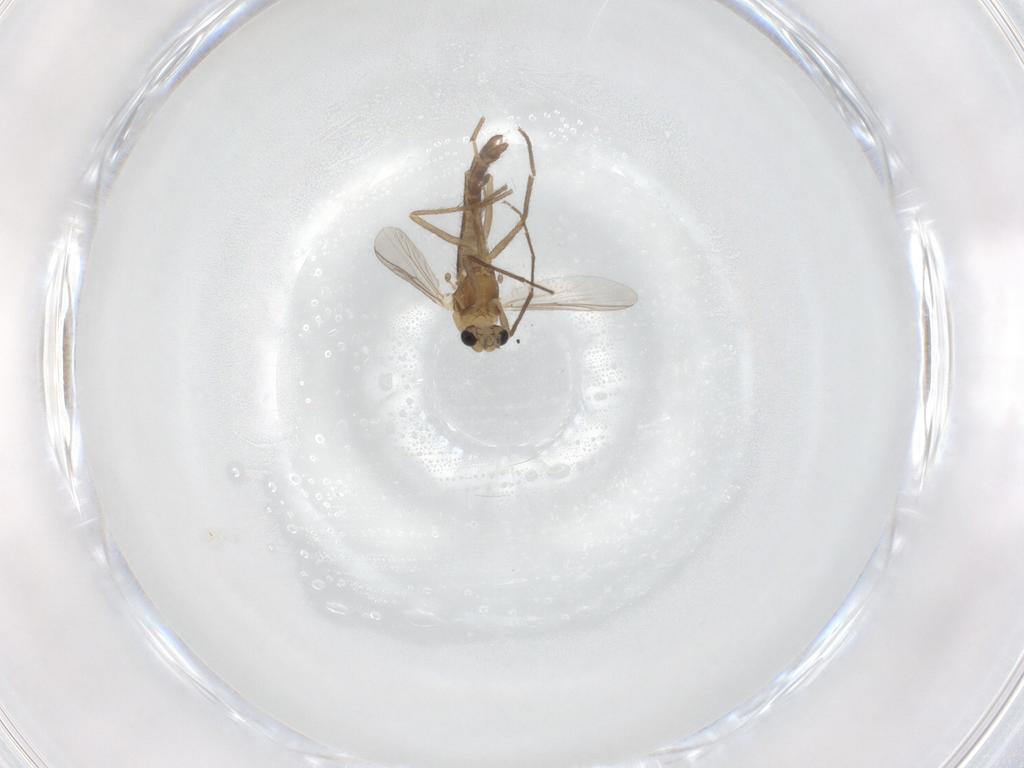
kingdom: Animalia
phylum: Arthropoda
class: Insecta
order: Diptera
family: Chironomidae
